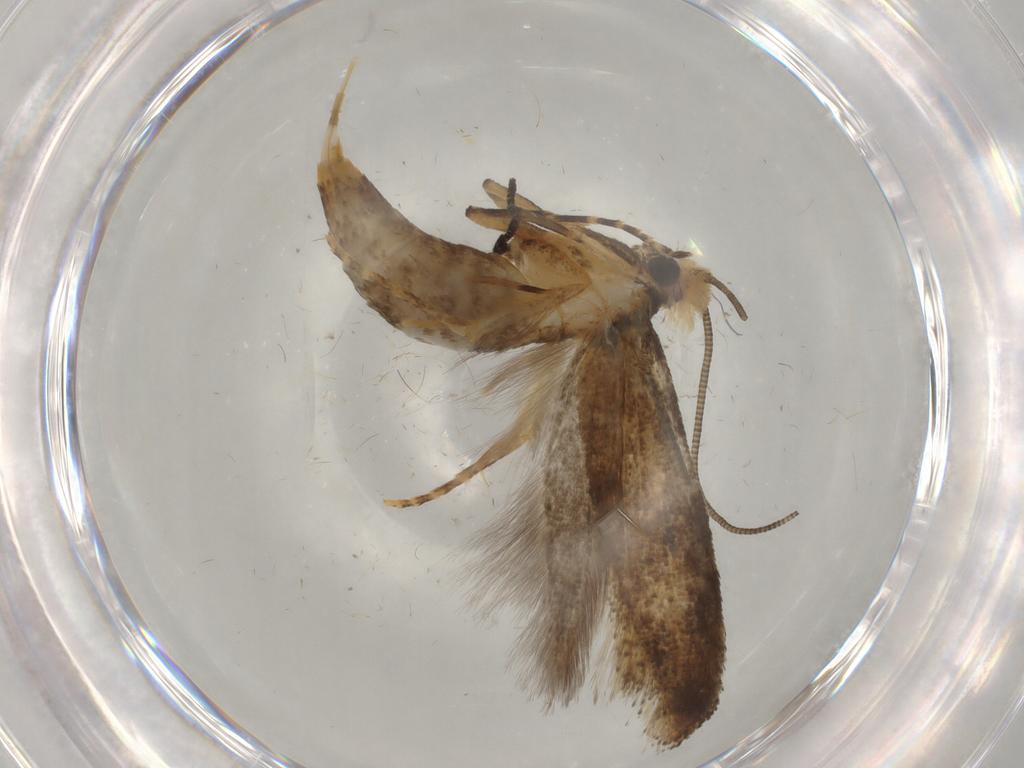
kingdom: Animalia
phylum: Arthropoda
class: Insecta
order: Lepidoptera
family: Tineidae
